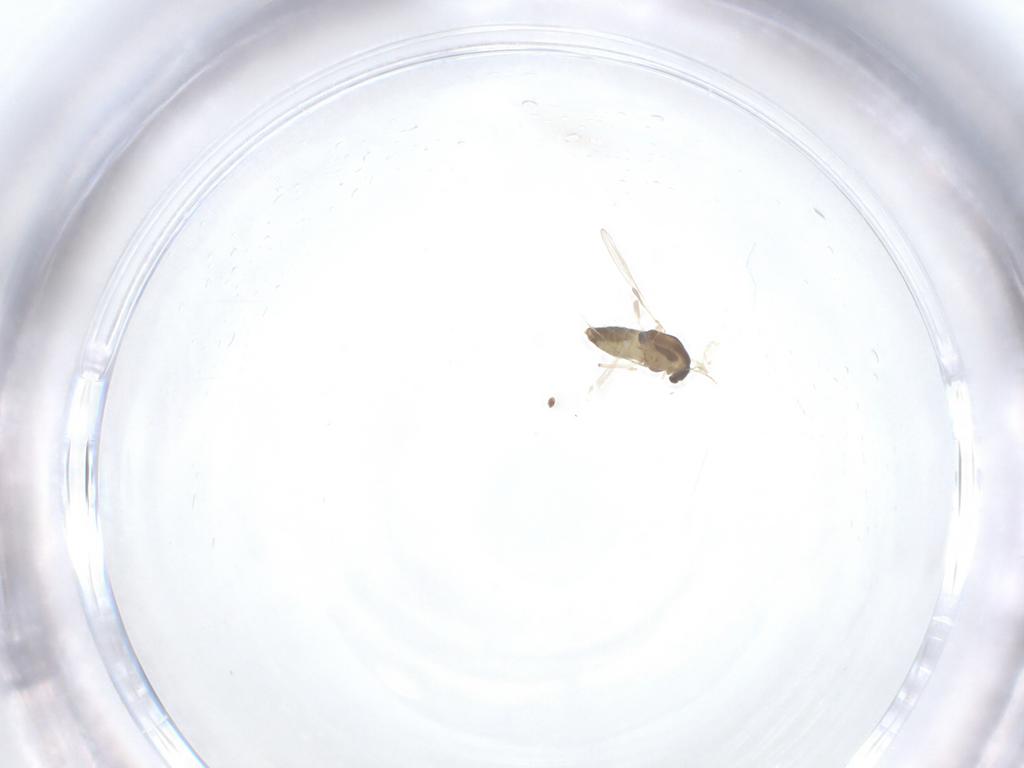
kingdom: Animalia
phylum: Arthropoda
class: Insecta
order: Diptera
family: Chironomidae
